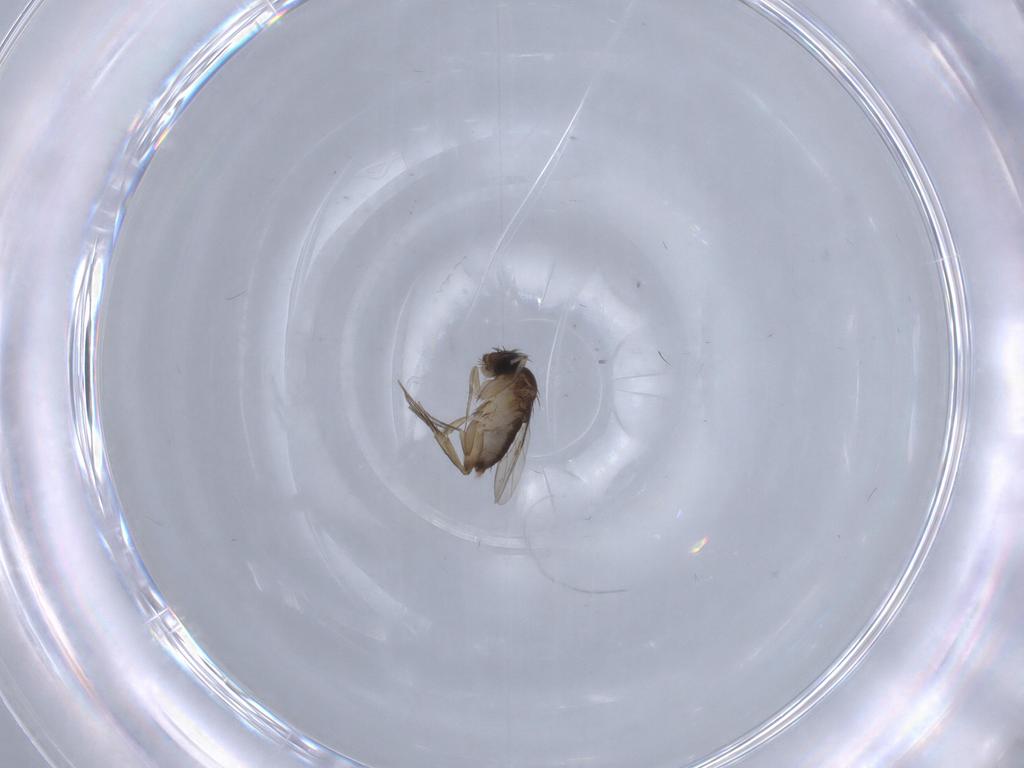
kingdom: Animalia
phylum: Arthropoda
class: Insecta
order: Diptera
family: Phoridae
